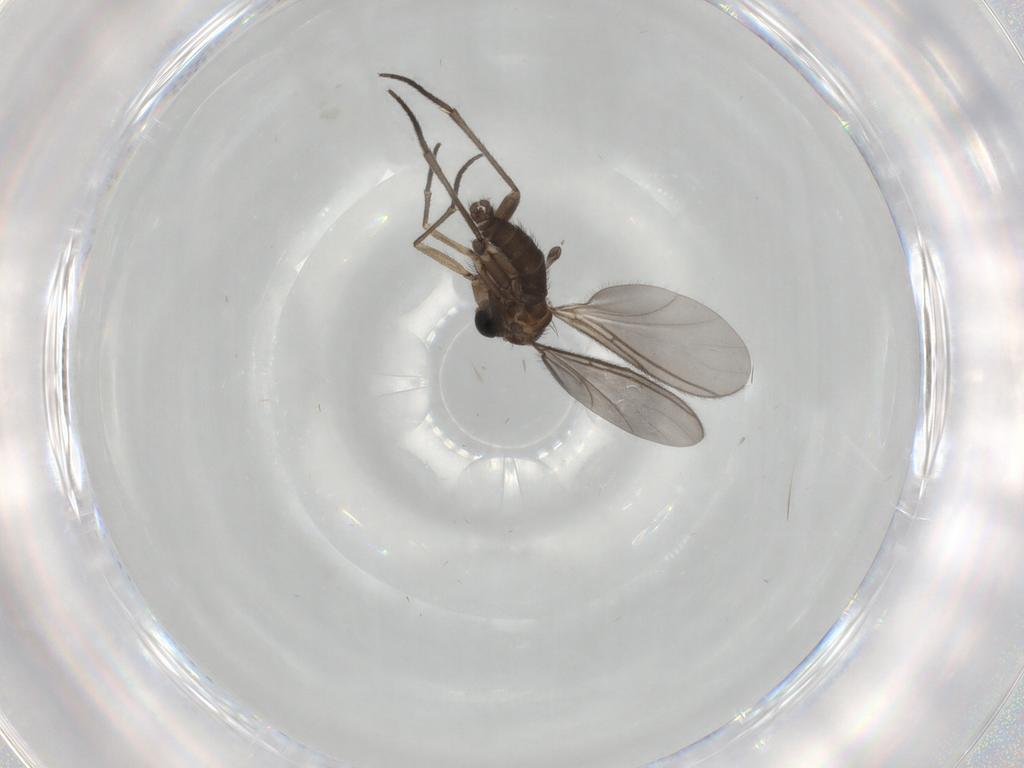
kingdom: Animalia
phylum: Arthropoda
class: Insecta
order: Diptera
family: Sciaridae
